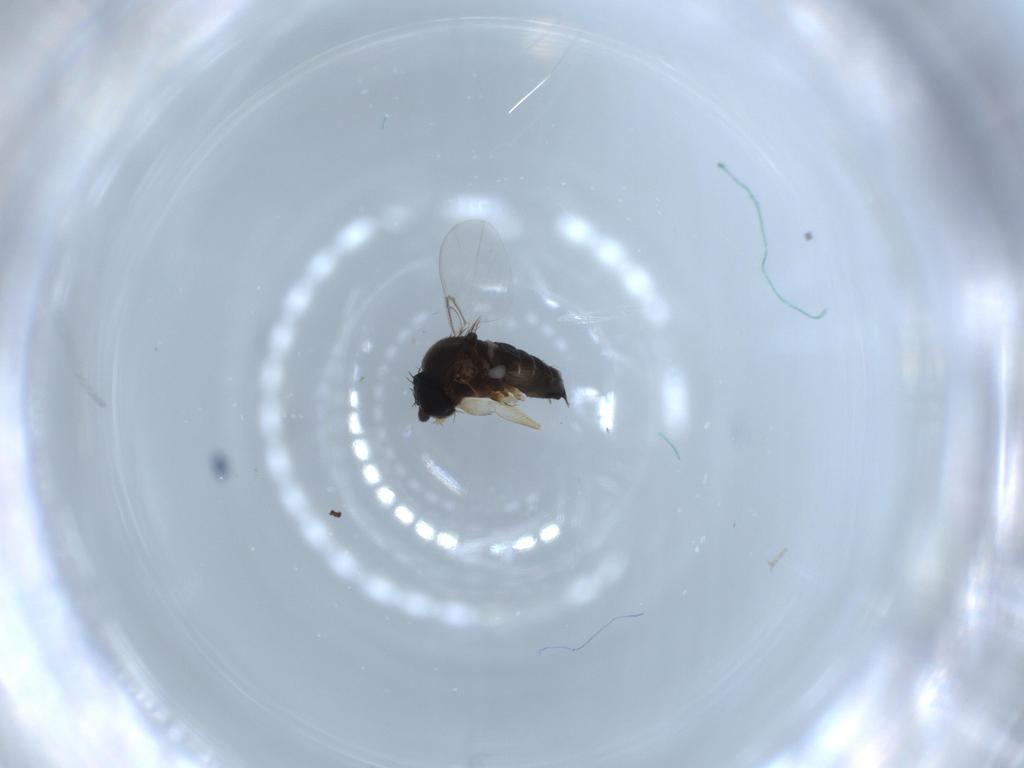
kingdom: Animalia
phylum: Arthropoda
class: Insecta
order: Diptera
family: Phoridae
